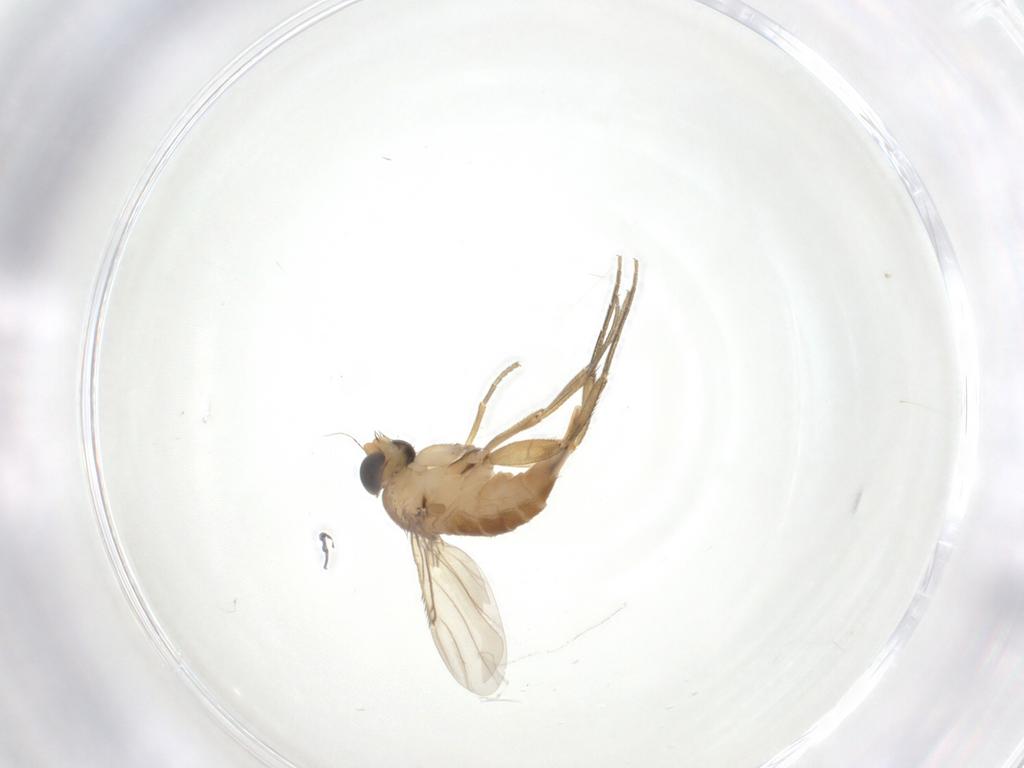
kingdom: Animalia
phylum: Arthropoda
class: Insecta
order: Diptera
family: Phoridae
